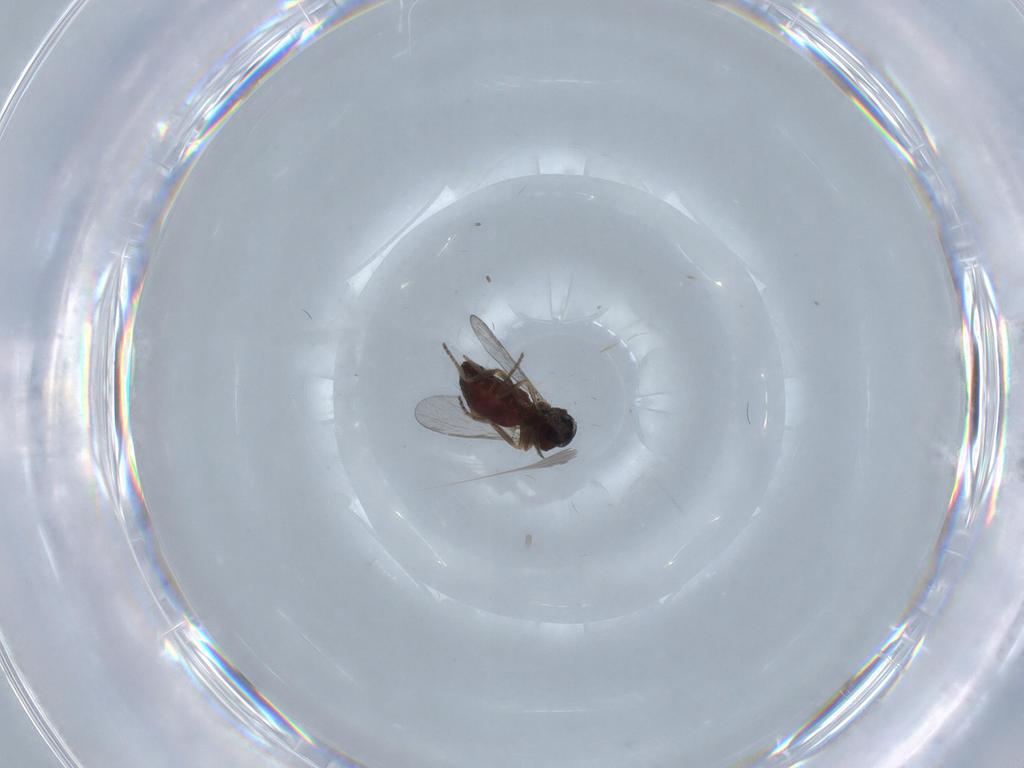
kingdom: Animalia
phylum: Arthropoda
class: Insecta
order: Diptera
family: Ceratopogonidae
